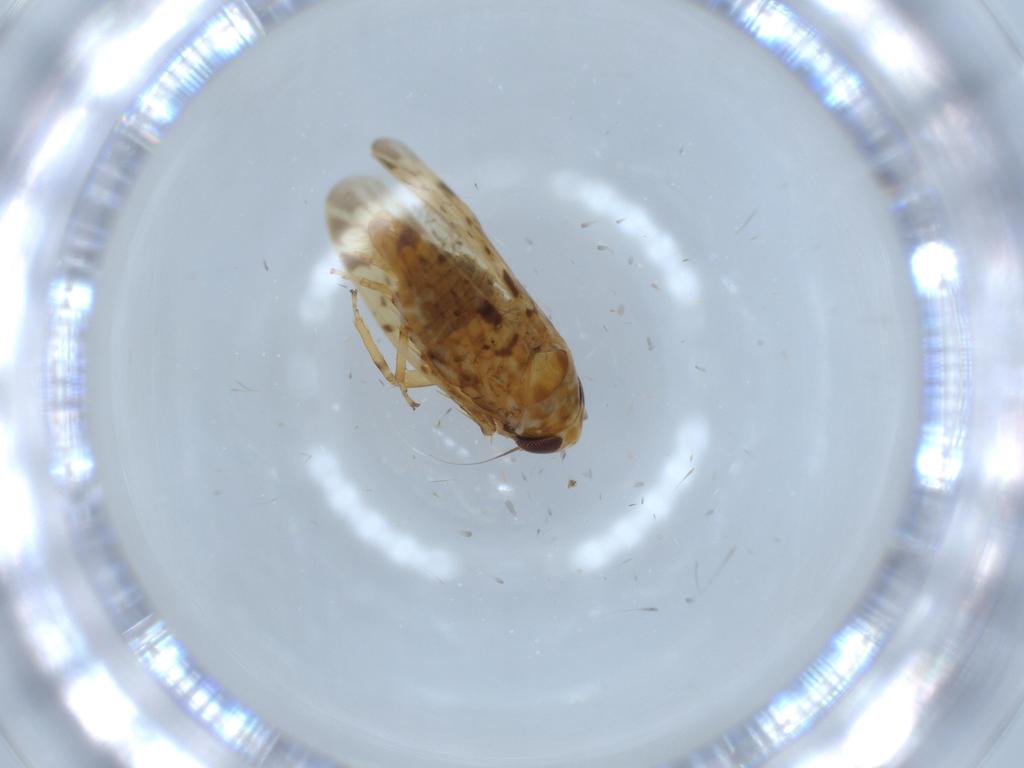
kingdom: Animalia
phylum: Arthropoda
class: Insecta
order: Hemiptera
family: Cicadellidae
